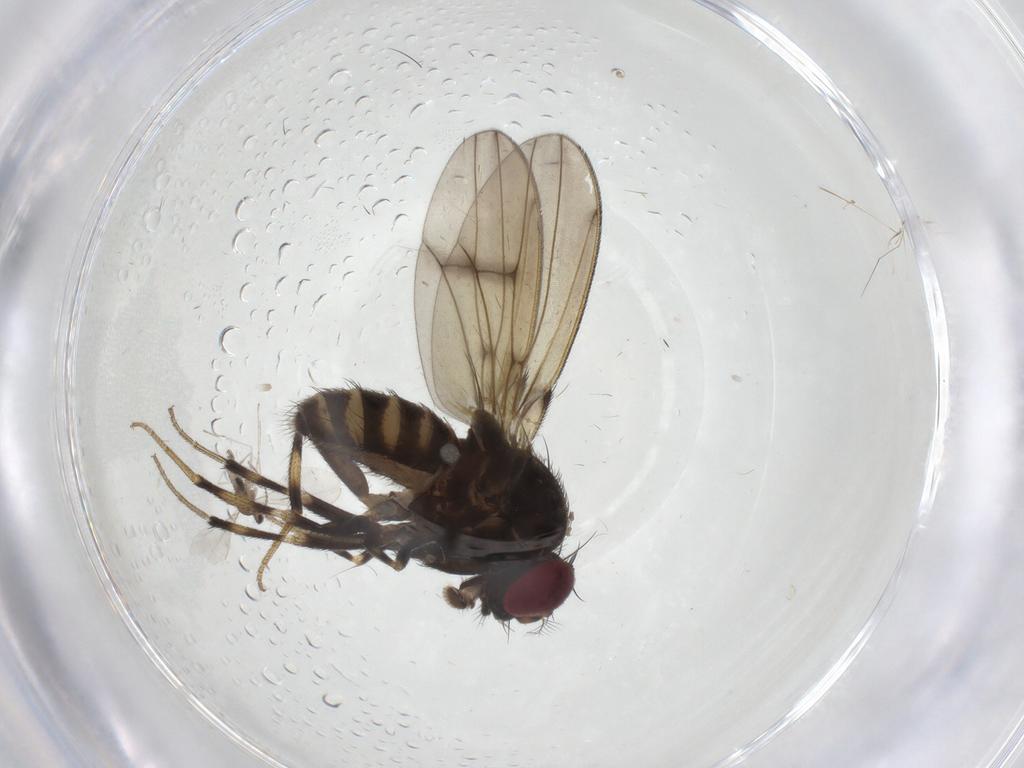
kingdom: Animalia
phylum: Arthropoda
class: Insecta
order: Diptera
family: Drosophilidae
